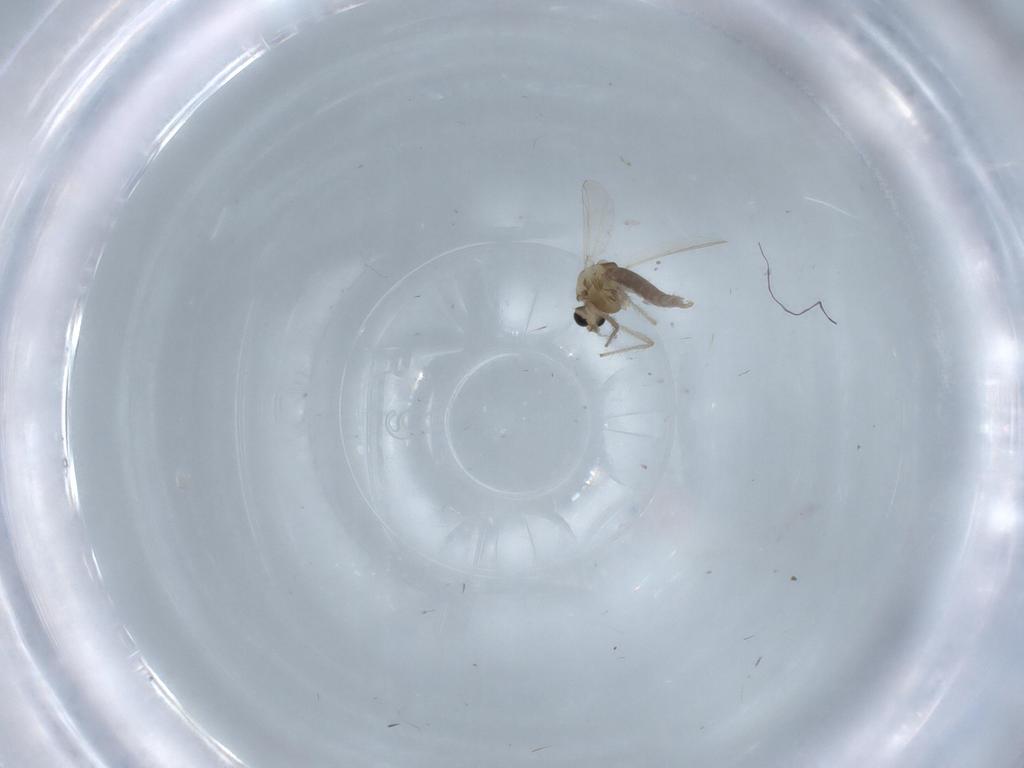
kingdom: Animalia
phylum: Arthropoda
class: Insecta
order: Diptera
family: Chironomidae
